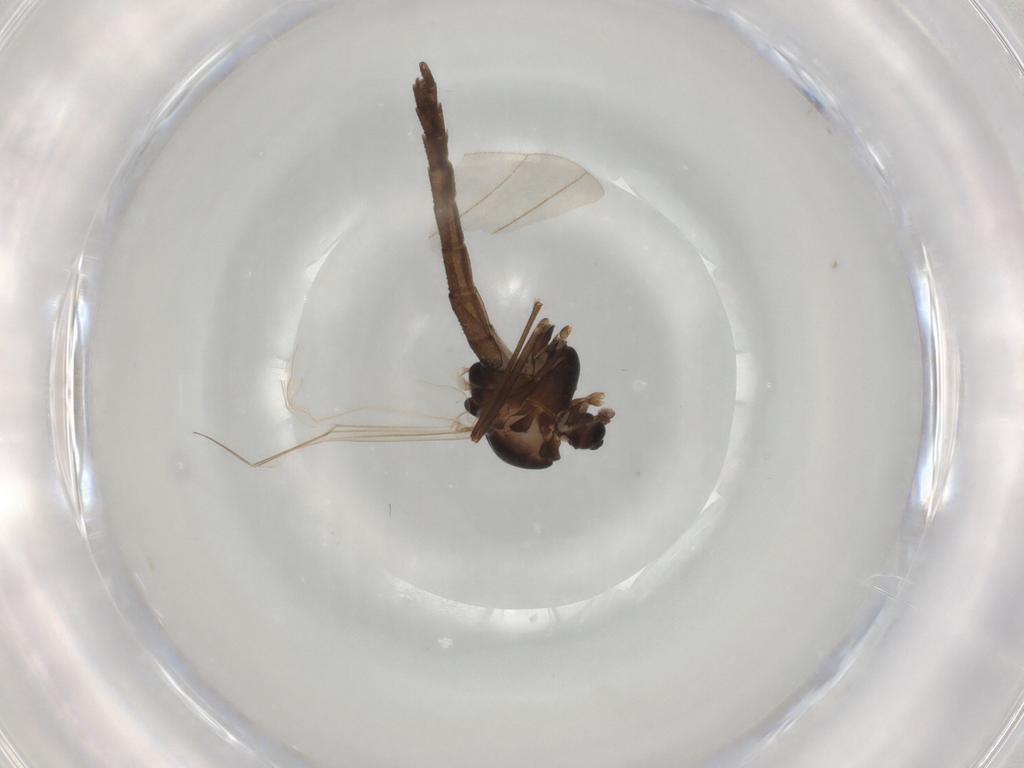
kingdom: Animalia
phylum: Arthropoda
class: Insecta
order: Diptera
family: Chironomidae
